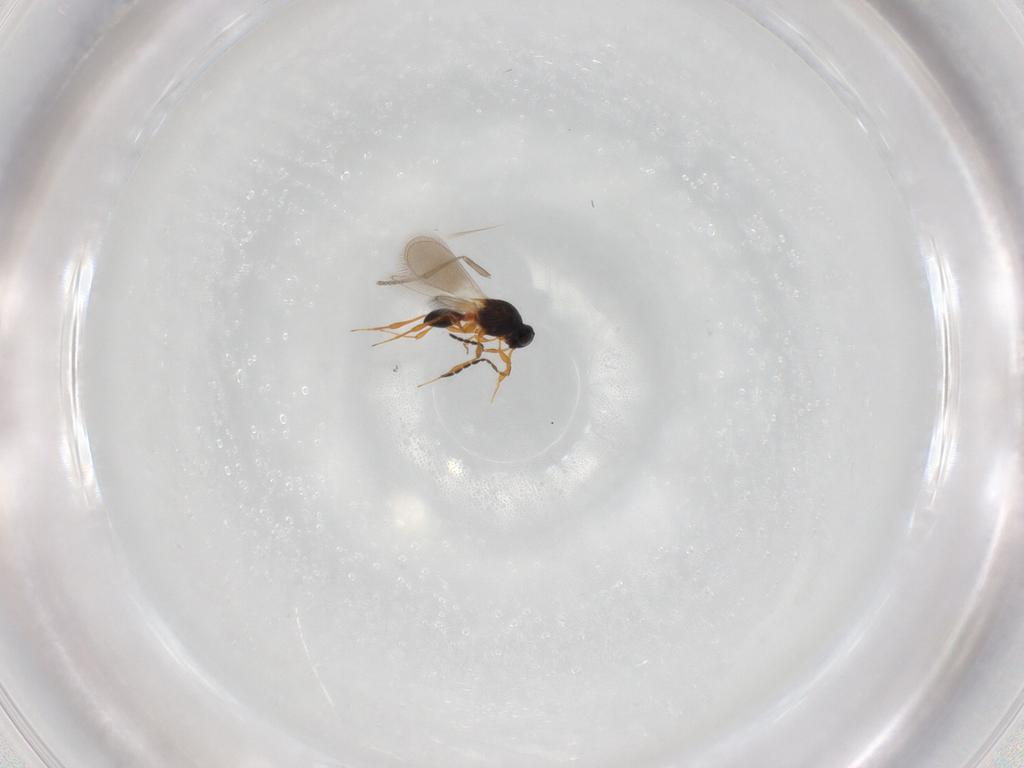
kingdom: Animalia
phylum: Arthropoda
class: Insecta
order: Hymenoptera
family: Platygastridae
